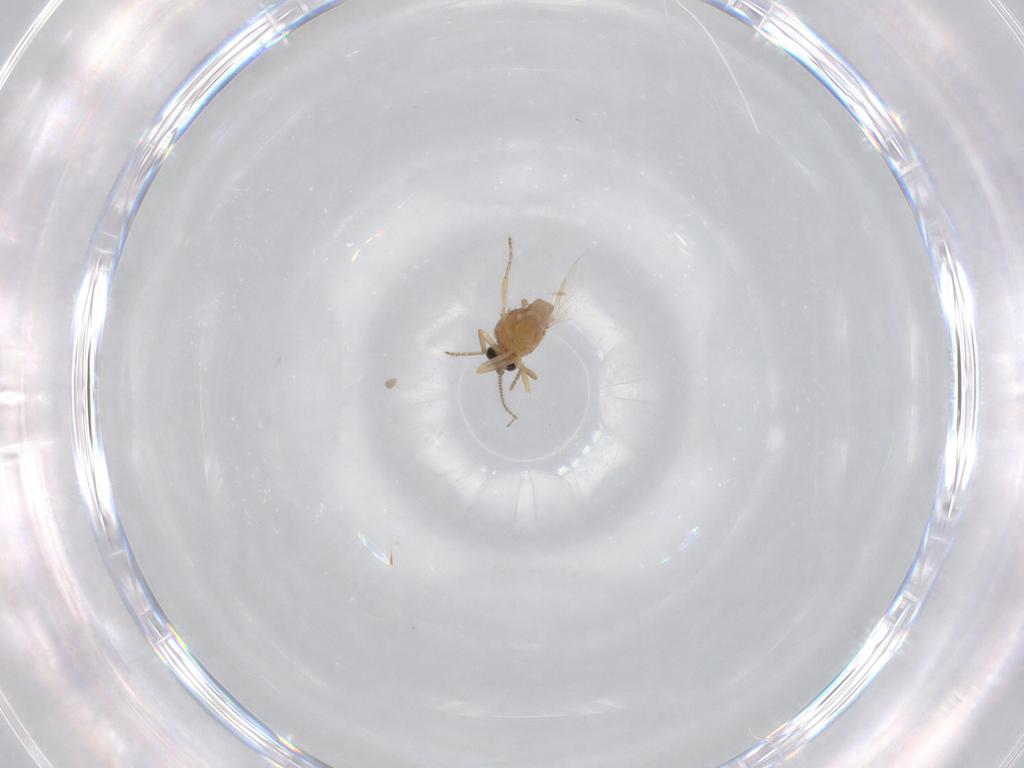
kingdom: Animalia
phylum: Arthropoda
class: Insecta
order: Diptera
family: Ceratopogonidae
